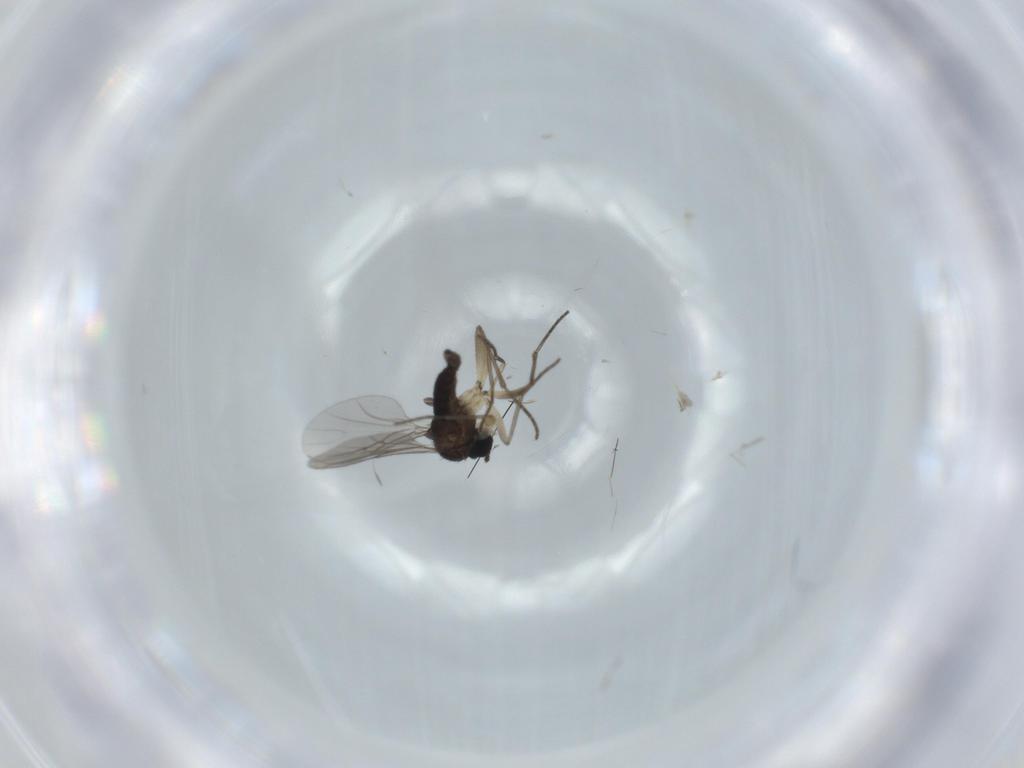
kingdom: Animalia
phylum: Arthropoda
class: Insecta
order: Diptera
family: Sciaridae
